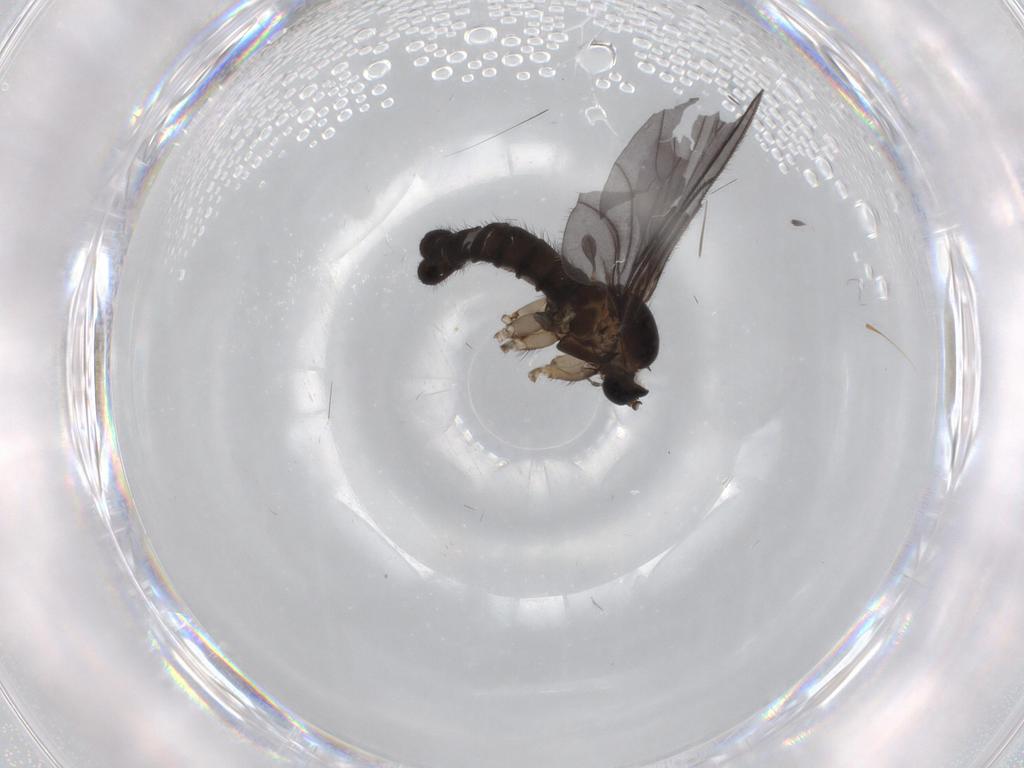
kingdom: Animalia
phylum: Arthropoda
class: Insecta
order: Diptera
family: Sciaridae
